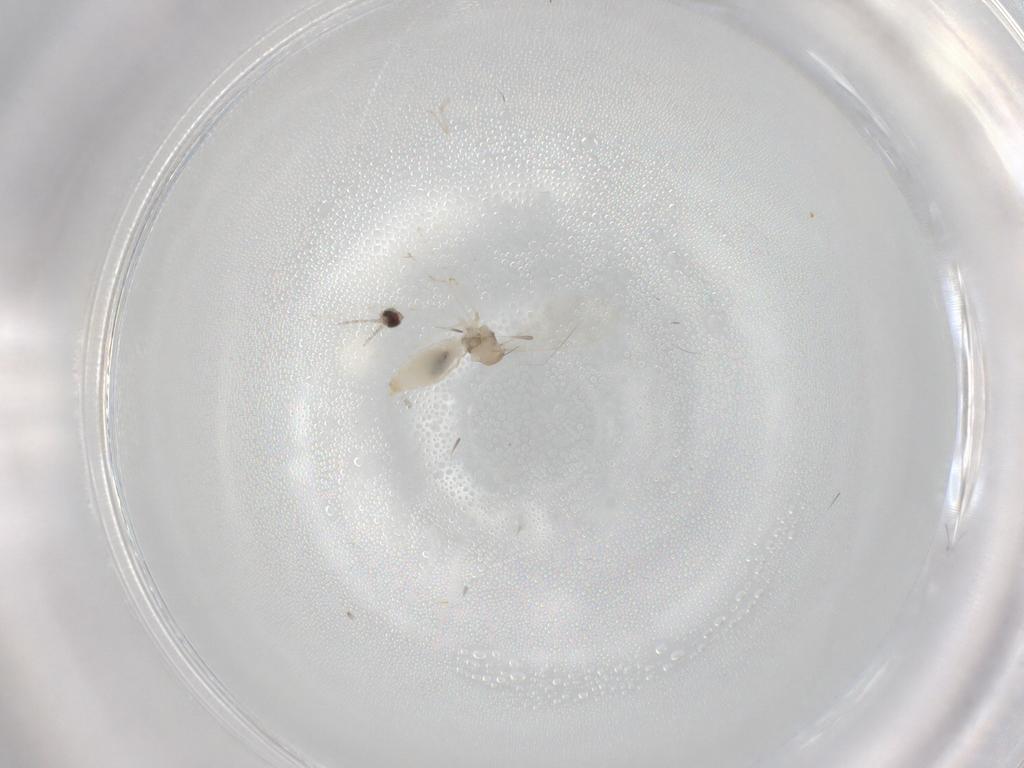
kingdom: Animalia
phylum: Arthropoda
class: Insecta
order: Diptera
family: Cecidomyiidae
